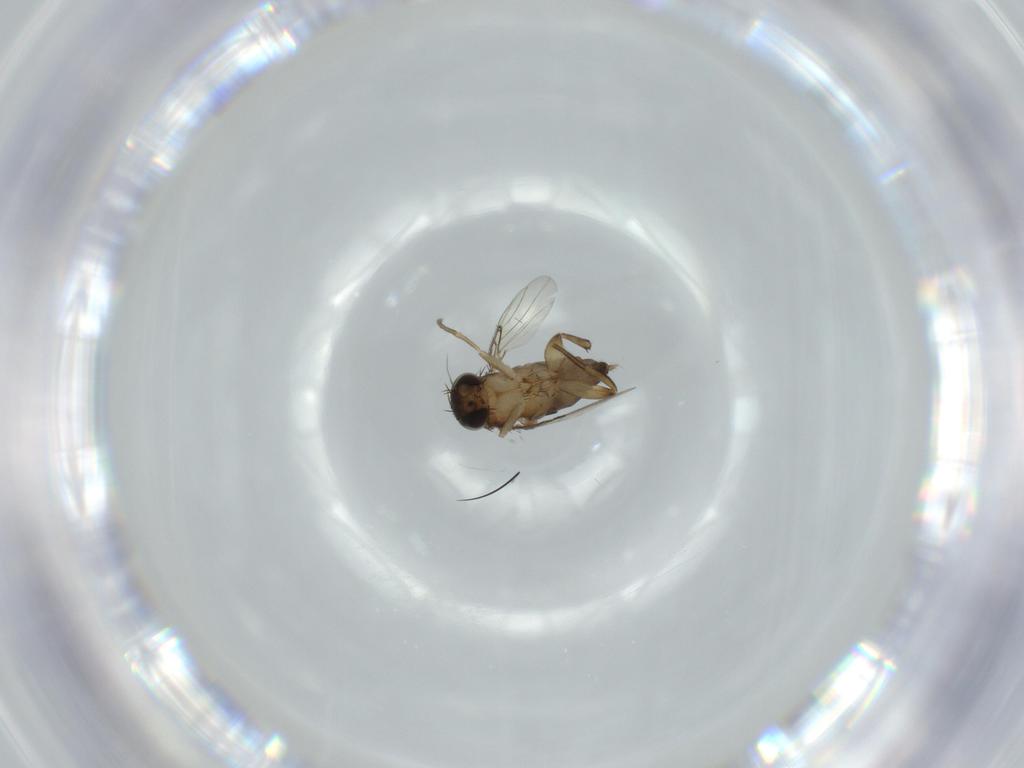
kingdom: Animalia
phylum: Arthropoda
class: Insecta
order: Diptera
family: Phoridae
